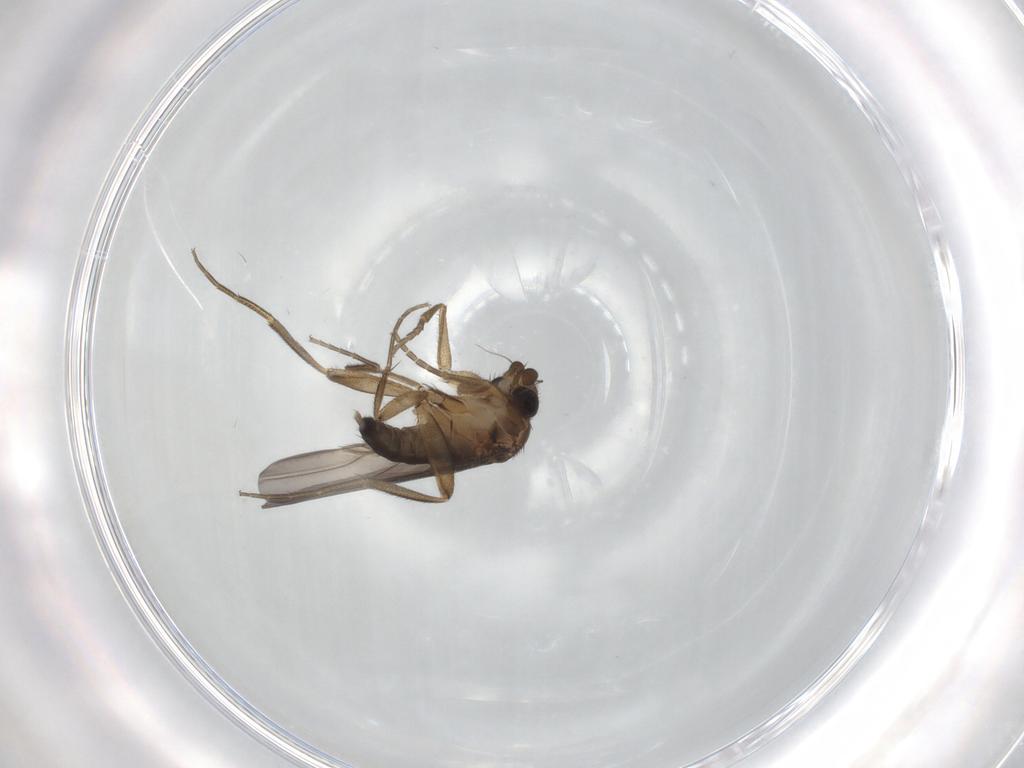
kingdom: Animalia
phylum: Arthropoda
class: Insecta
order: Diptera
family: Phoridae
